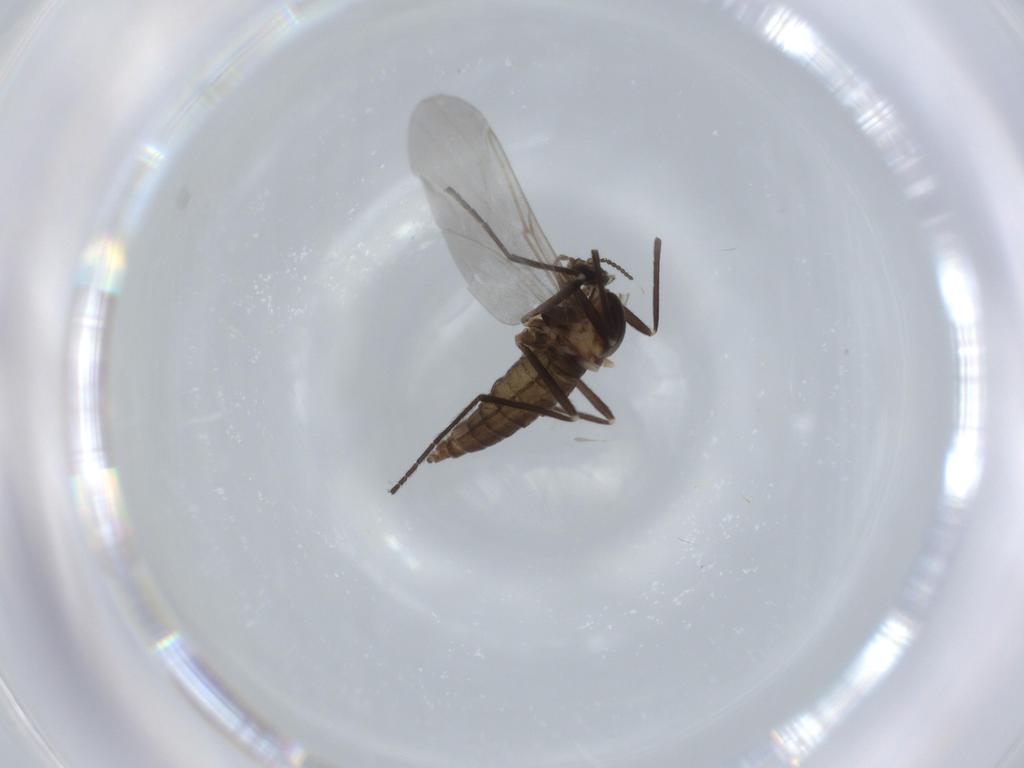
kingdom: Animalia
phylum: Arthropoda
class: Insecta
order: Diptera
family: Cecidomyiidae
